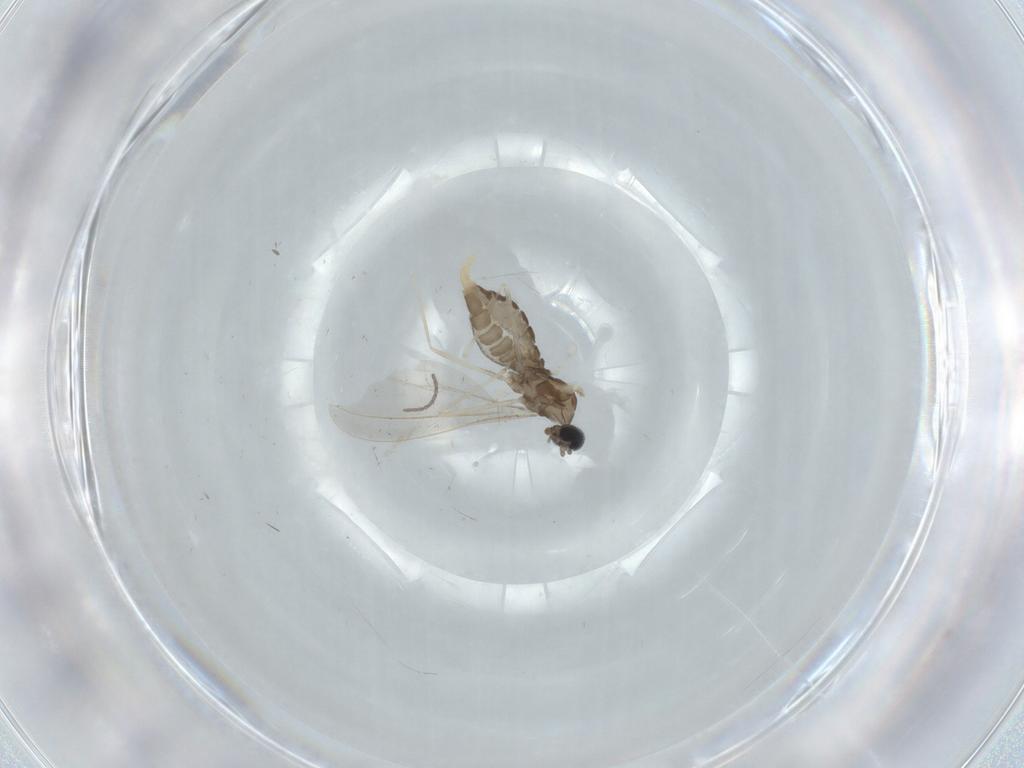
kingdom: Animalia
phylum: Arthropoda
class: Insecta
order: Diptera
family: Cecidomyiidae
